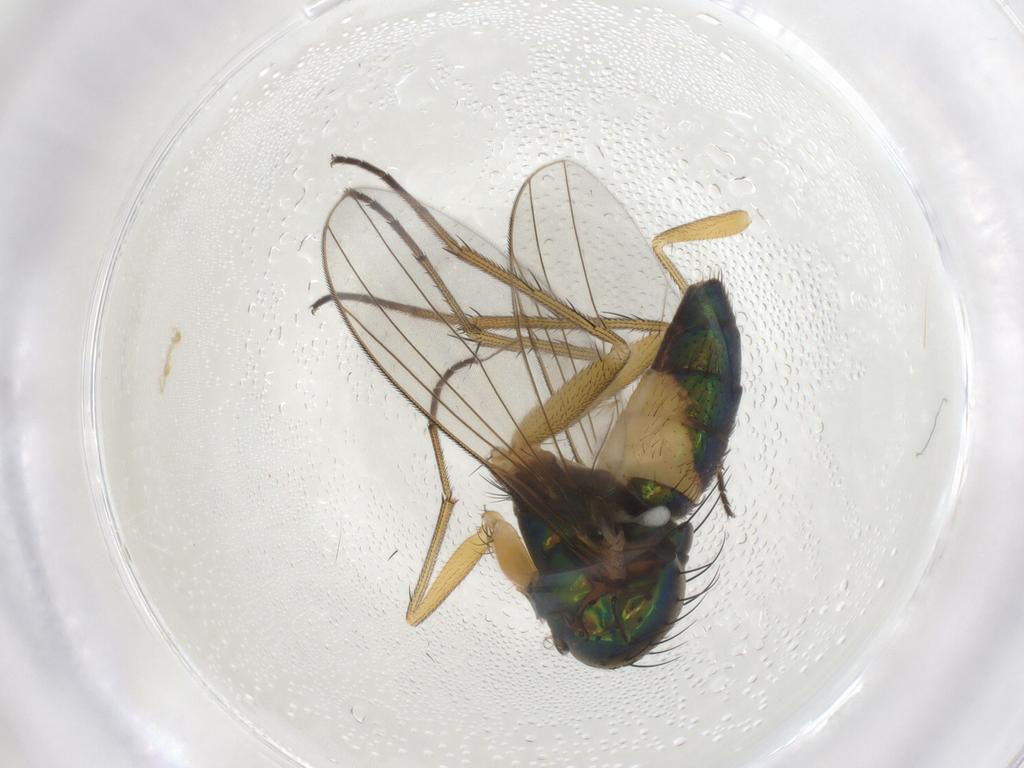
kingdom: Animalia
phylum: Arthropoda
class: Insecta
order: Diptera
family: Dolichopodidae
